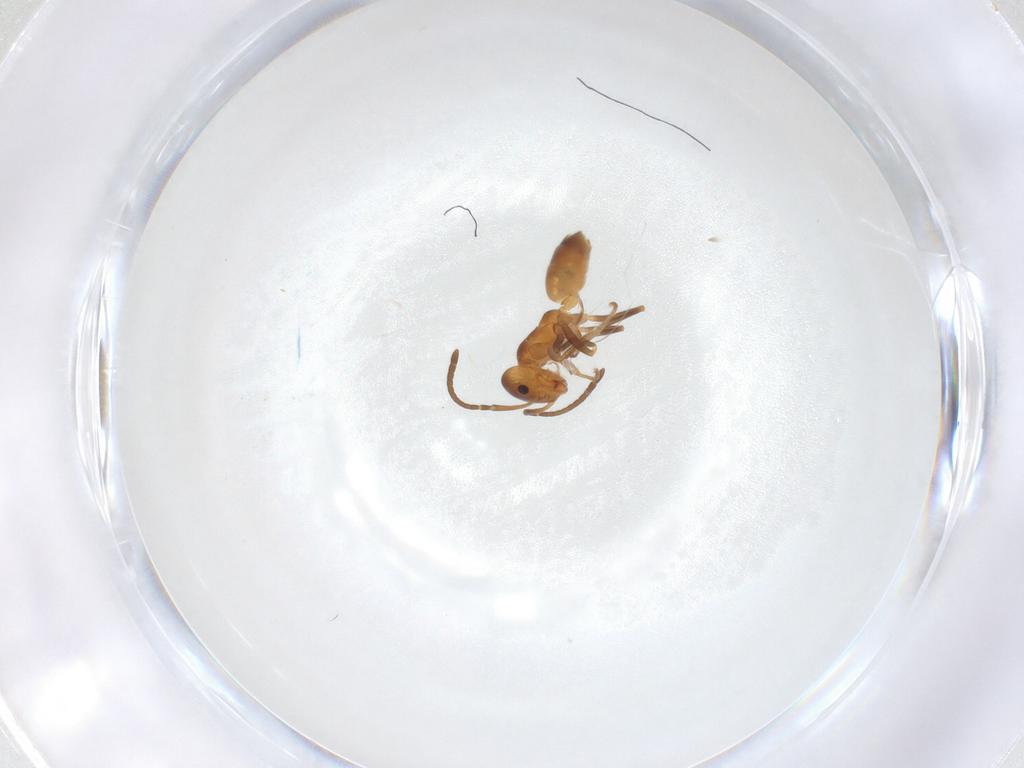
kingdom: Animalia
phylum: Arthropoda
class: Insecta
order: Hymenoptera
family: Formicidae
